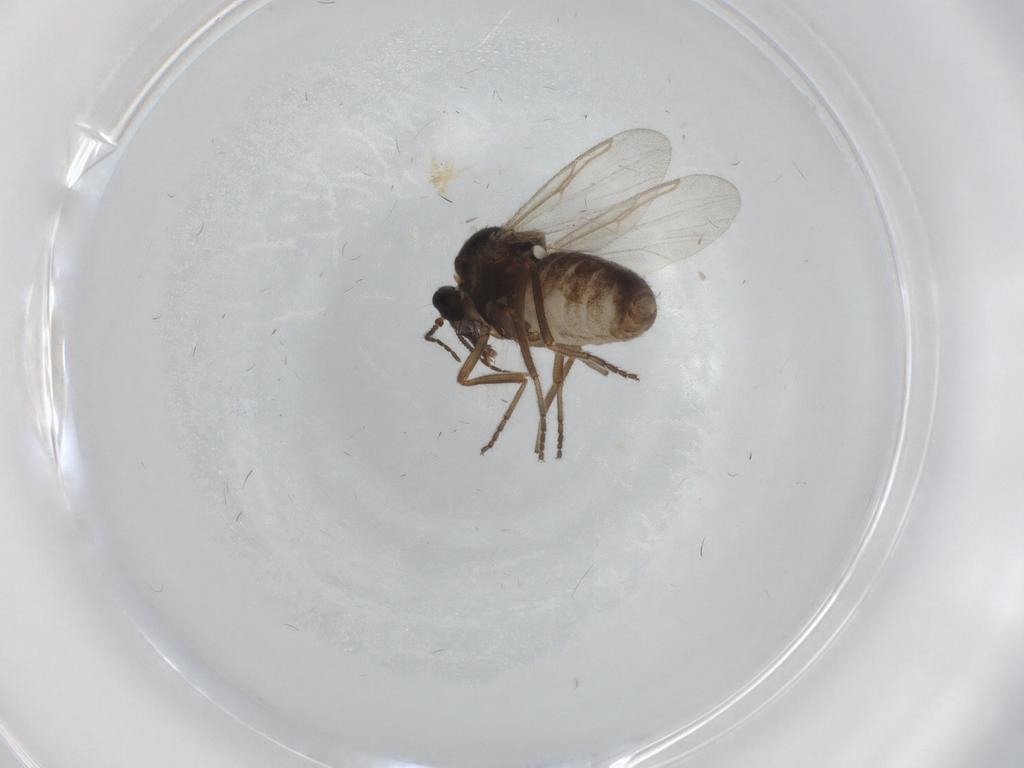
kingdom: Animalia
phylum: Arthropoda
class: Insecta
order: Diptera
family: Ceratopogonidae
